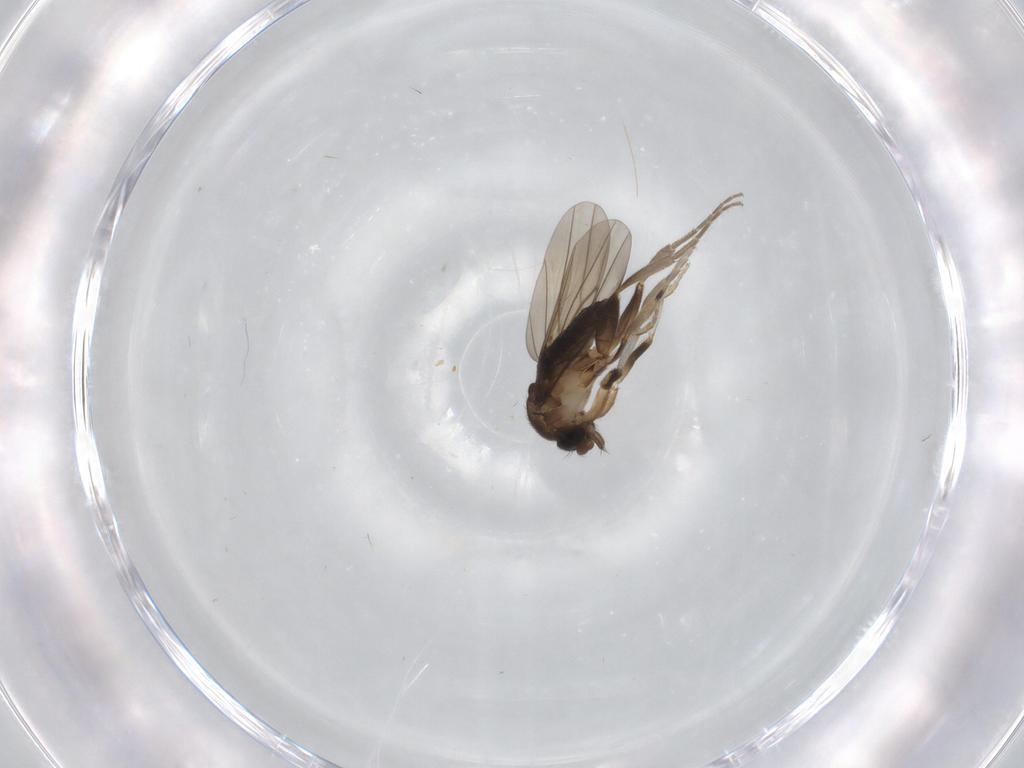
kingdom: Animalia
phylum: Arthropoda
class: Insecta
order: Diptera
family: Phoridae
